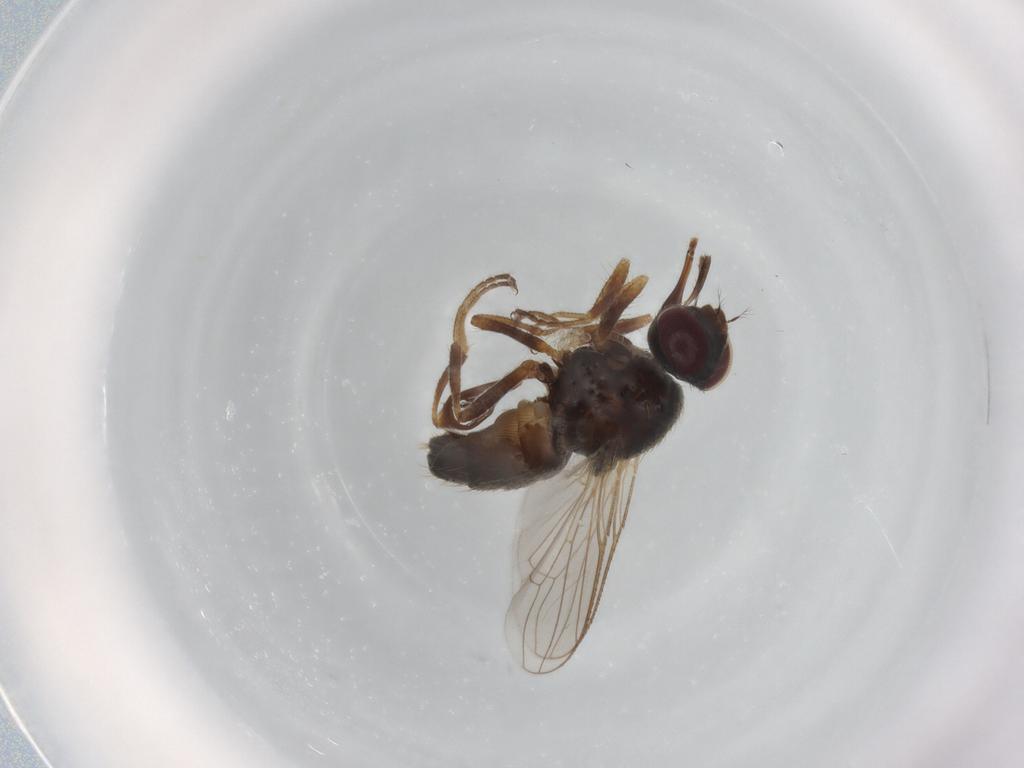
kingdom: Animalia
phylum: Arthropoda
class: Insecta
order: Diptera
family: Muscidae
